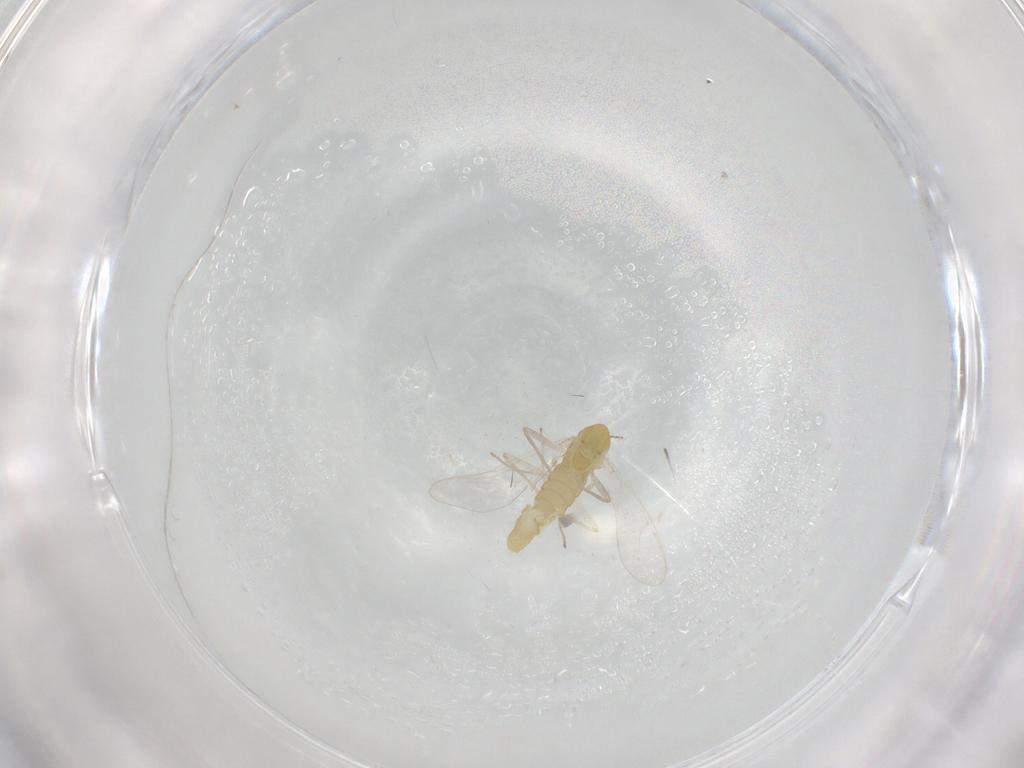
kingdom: Animalia
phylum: Arthropoda
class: Insecta
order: Diptera
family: Chironomidae
